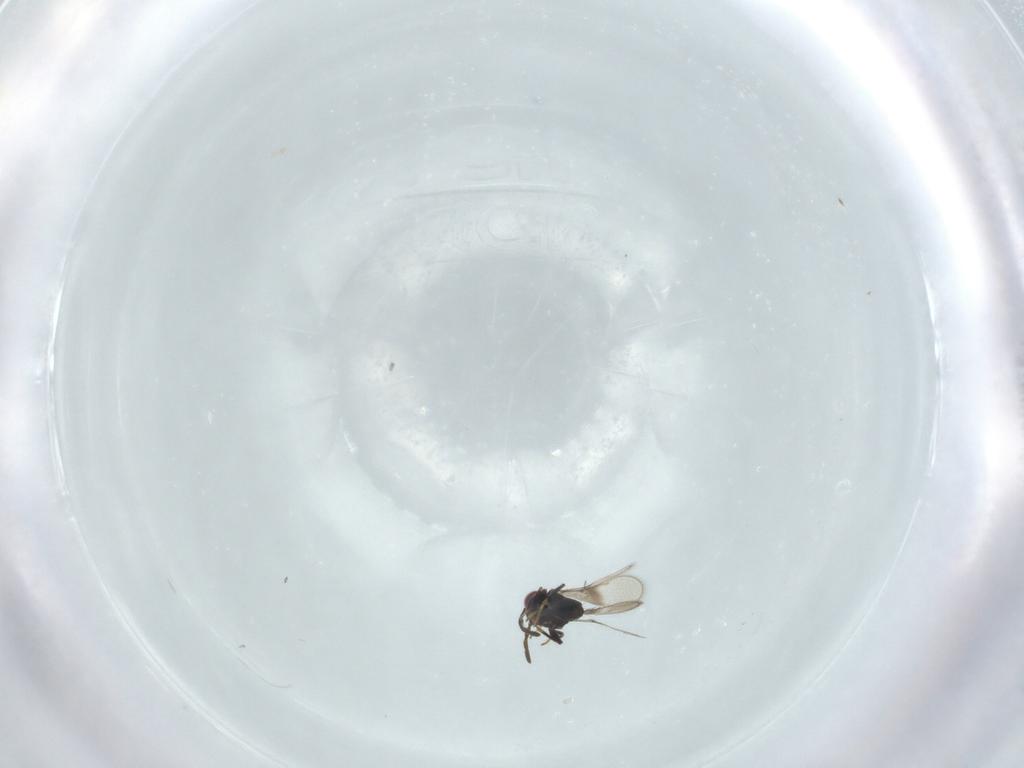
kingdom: Animalia
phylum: Arthropoda
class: Insecta
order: Hymenoptera
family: Azotidae
